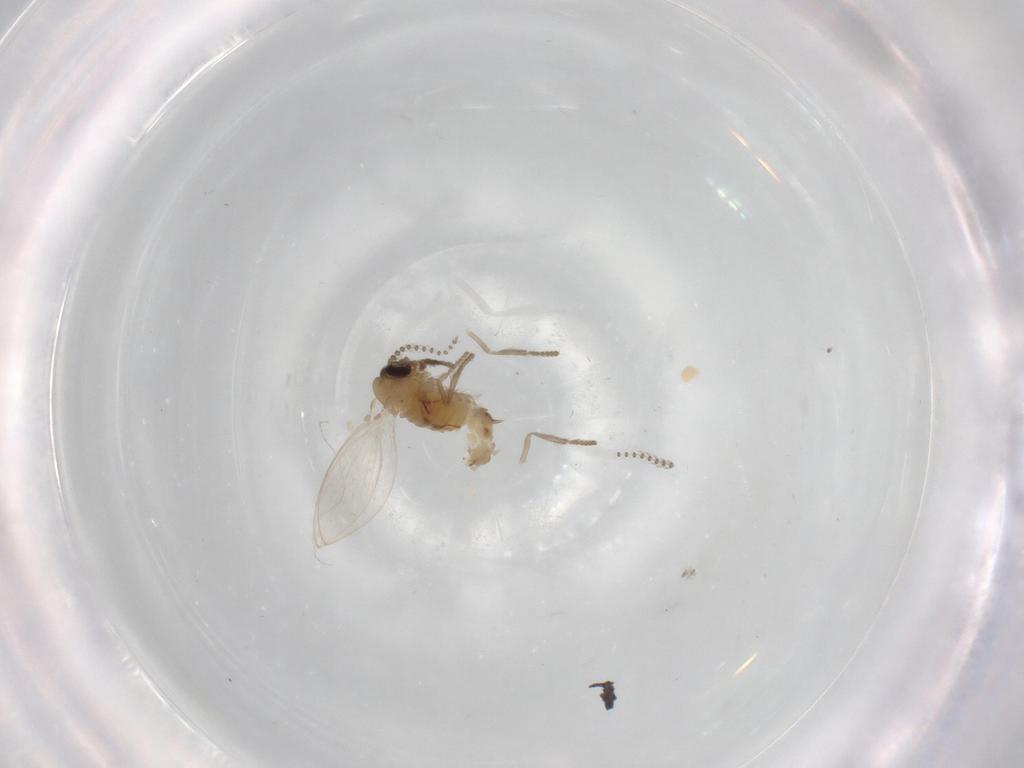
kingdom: Animalia
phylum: Arthropoda
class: Insecta
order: Diptera
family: Psychodidae
